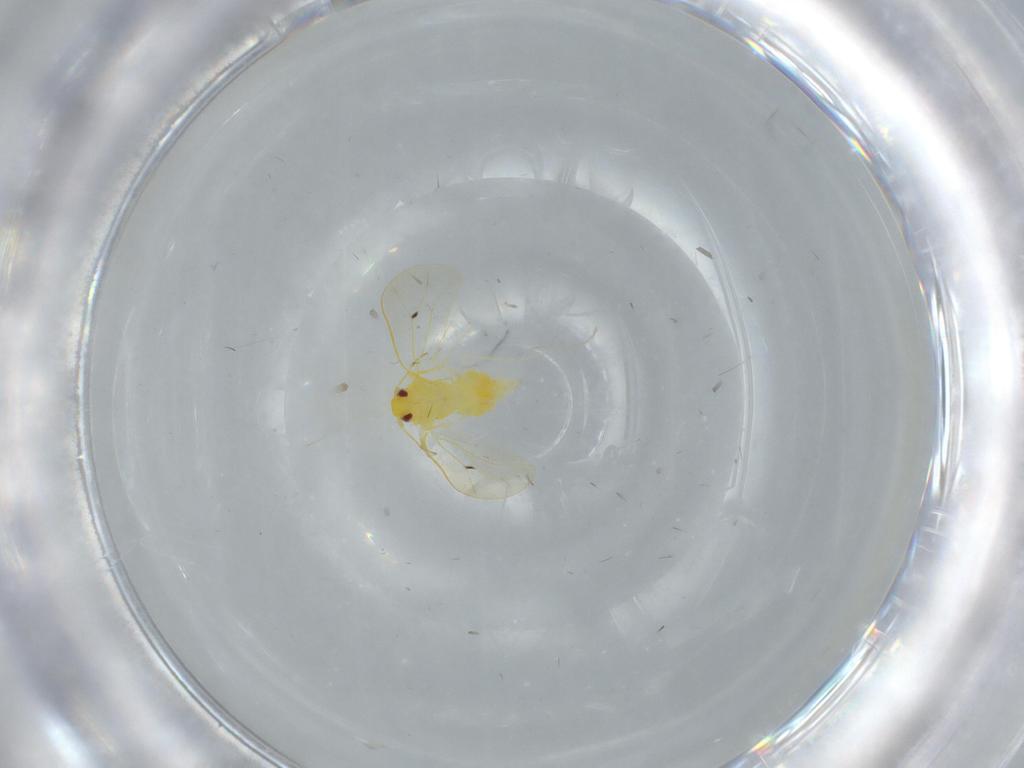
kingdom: Animalia
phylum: Arthropoda
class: Insecta
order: Hemiptera
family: Aleyrodidae
